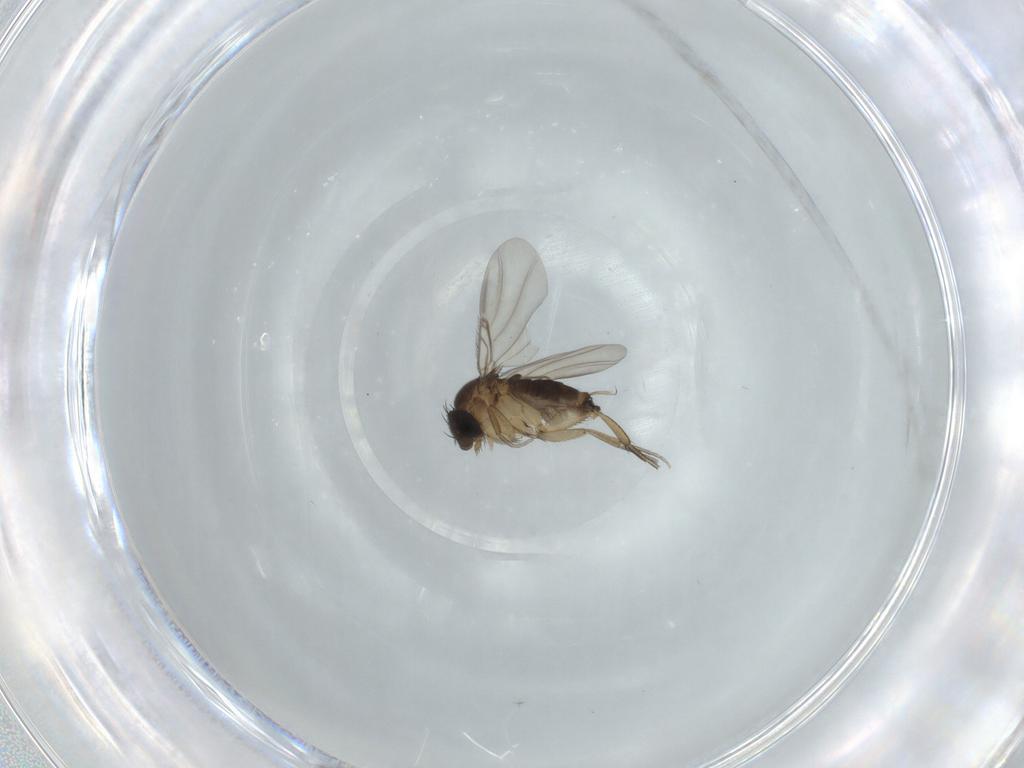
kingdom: Animalia
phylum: Arthropoda
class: Insecta
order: Diptera
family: Phoridae
